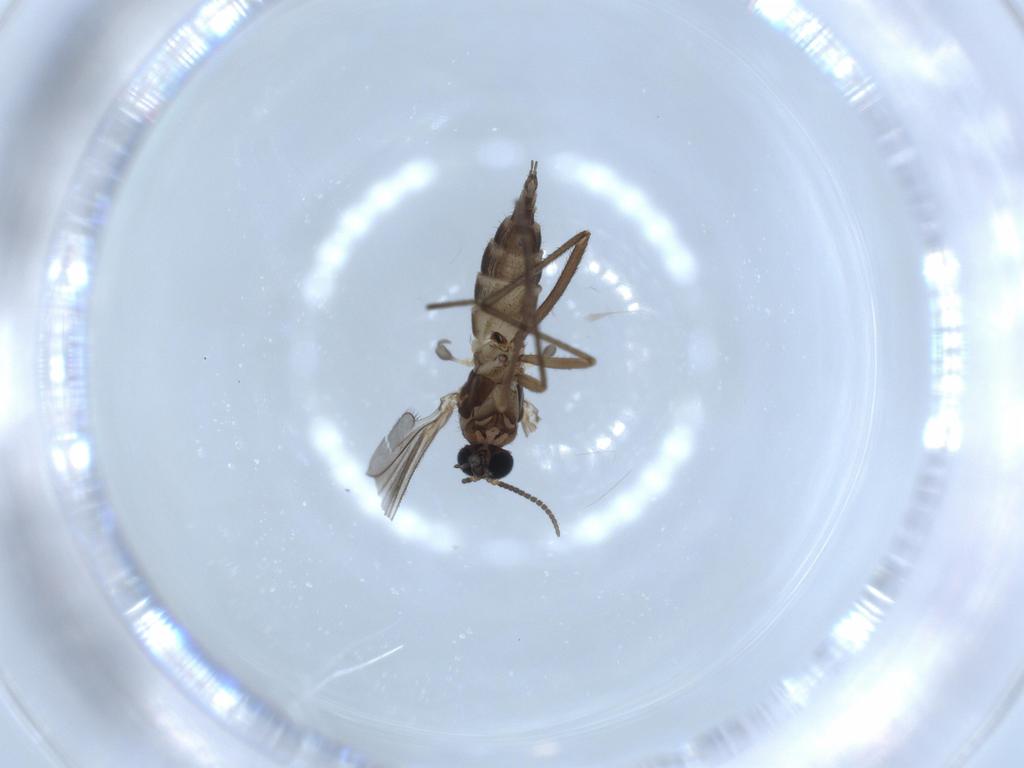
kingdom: Animalia
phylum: Arthropoda
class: Insecta
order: Diptera
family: Sciaridae
